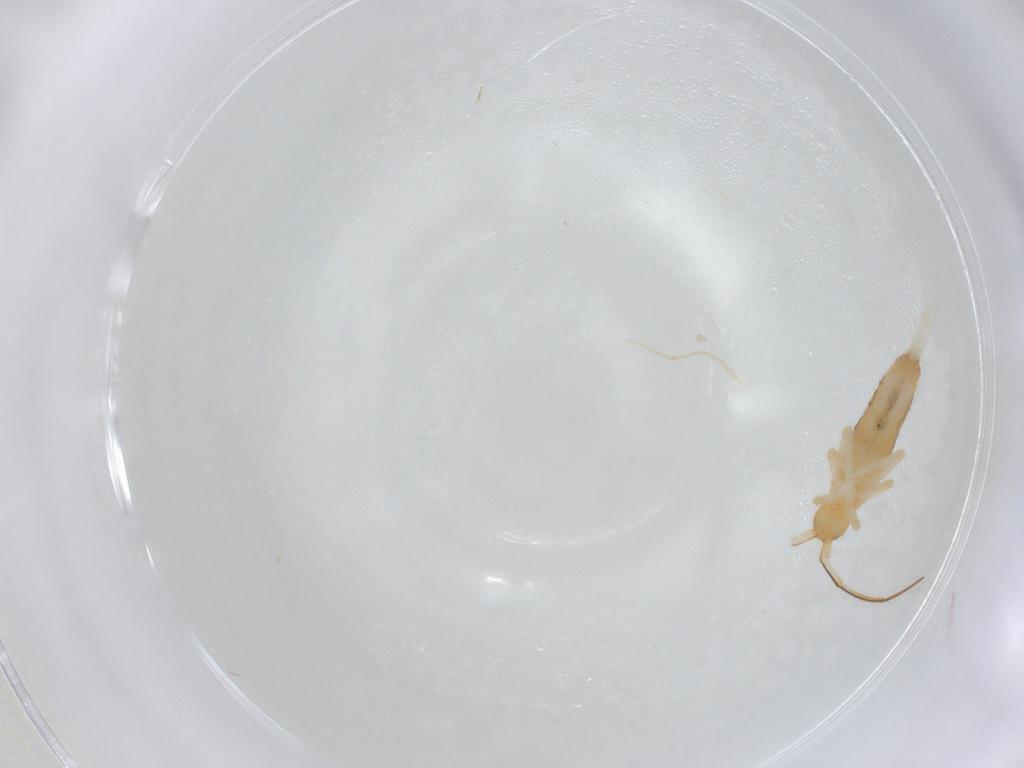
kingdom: Animalia
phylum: Arthropoda
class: Collembola
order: Entomobryomorpha
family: Entomobryidae
